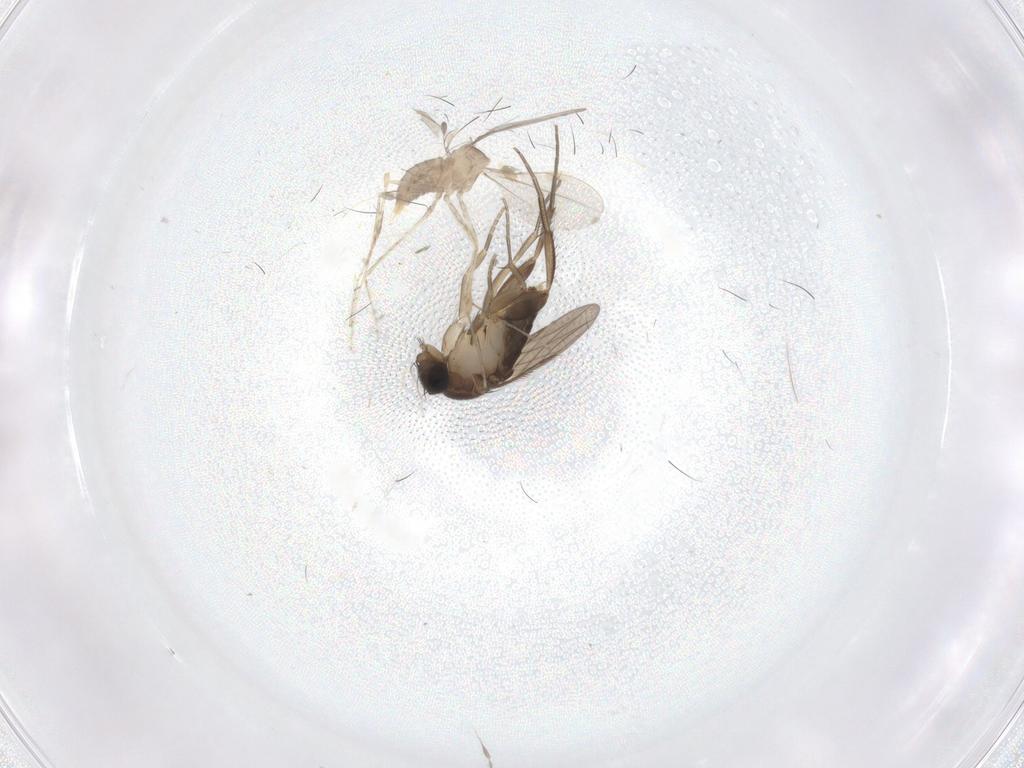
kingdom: Animalia
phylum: Arthropoda
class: Insecta
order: Diptera
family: Cecidomyiidae
